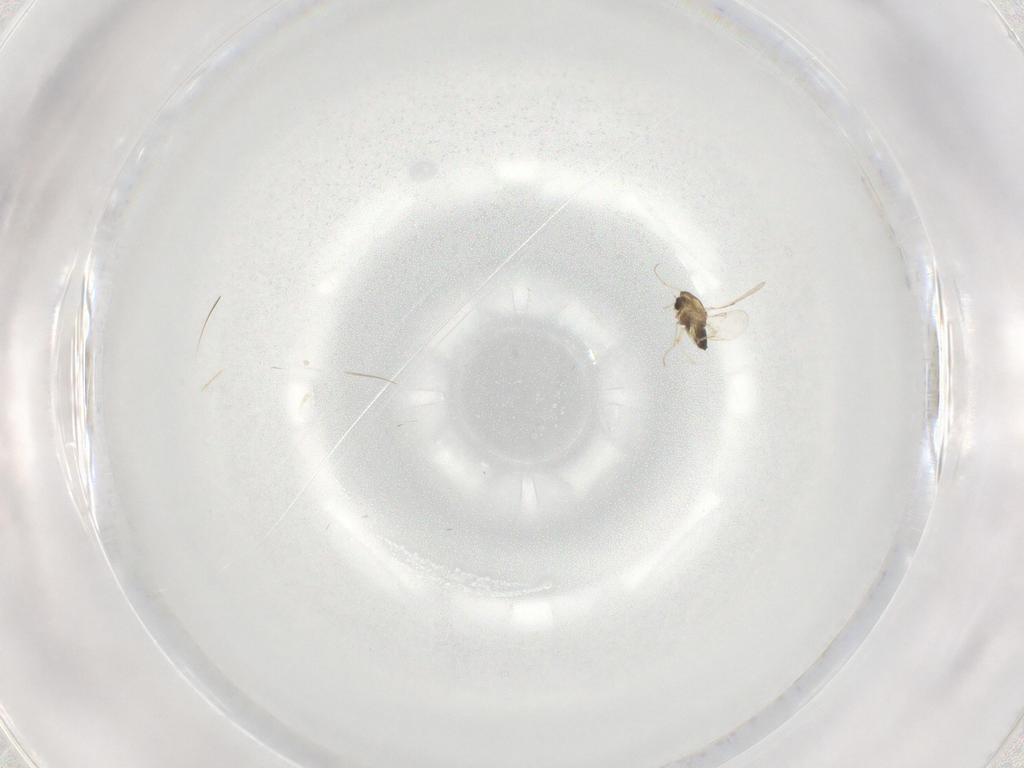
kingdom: Animalia
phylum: Arthropoda
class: Insecta
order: Diptera
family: Chironomidae
